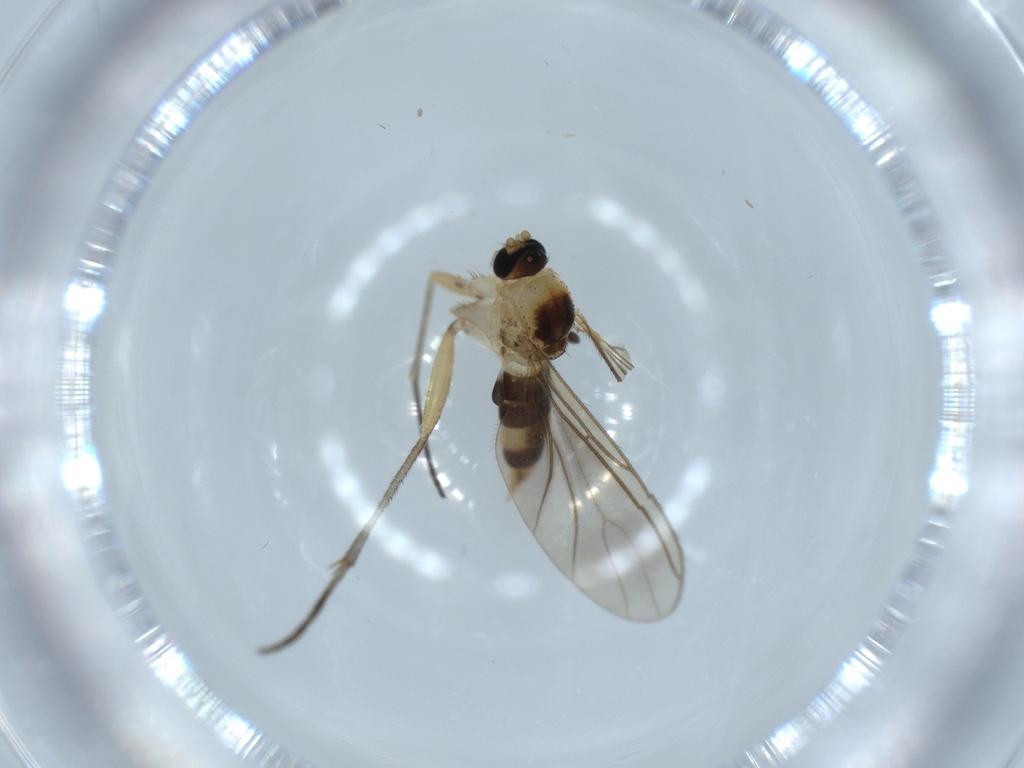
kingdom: Animalia
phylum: Arthropoda
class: Insecta
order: Diptera
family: Sciaridae
